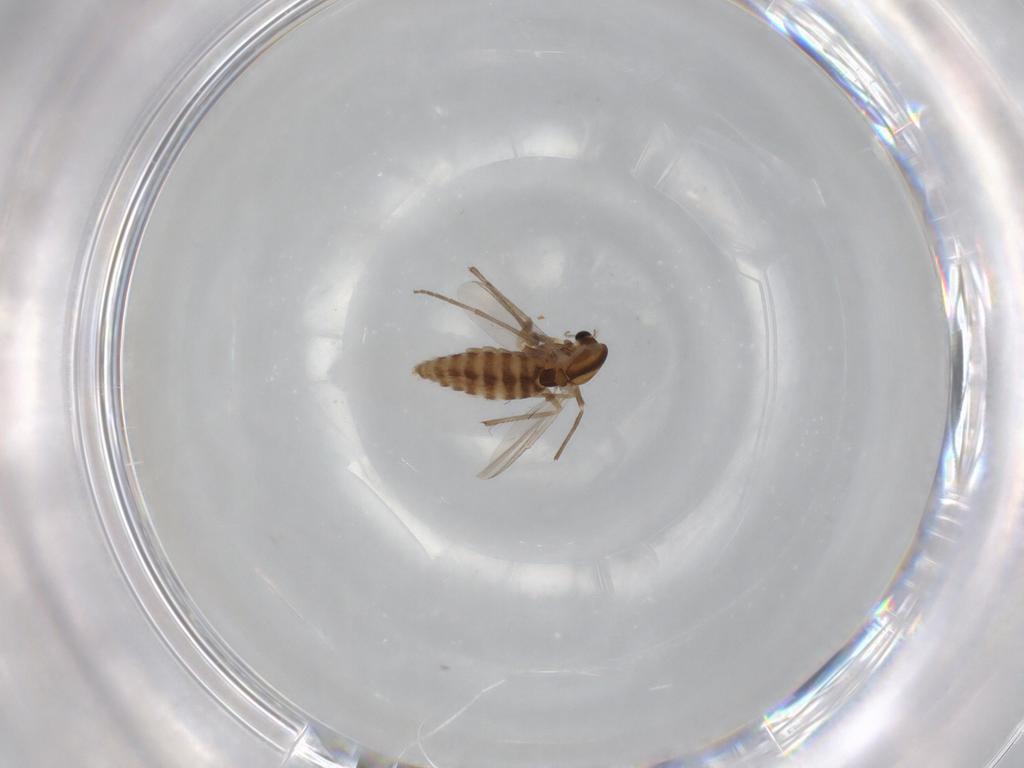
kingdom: Animalia
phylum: Arthropoda
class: Insecta
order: Diptera
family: Chironomidae
